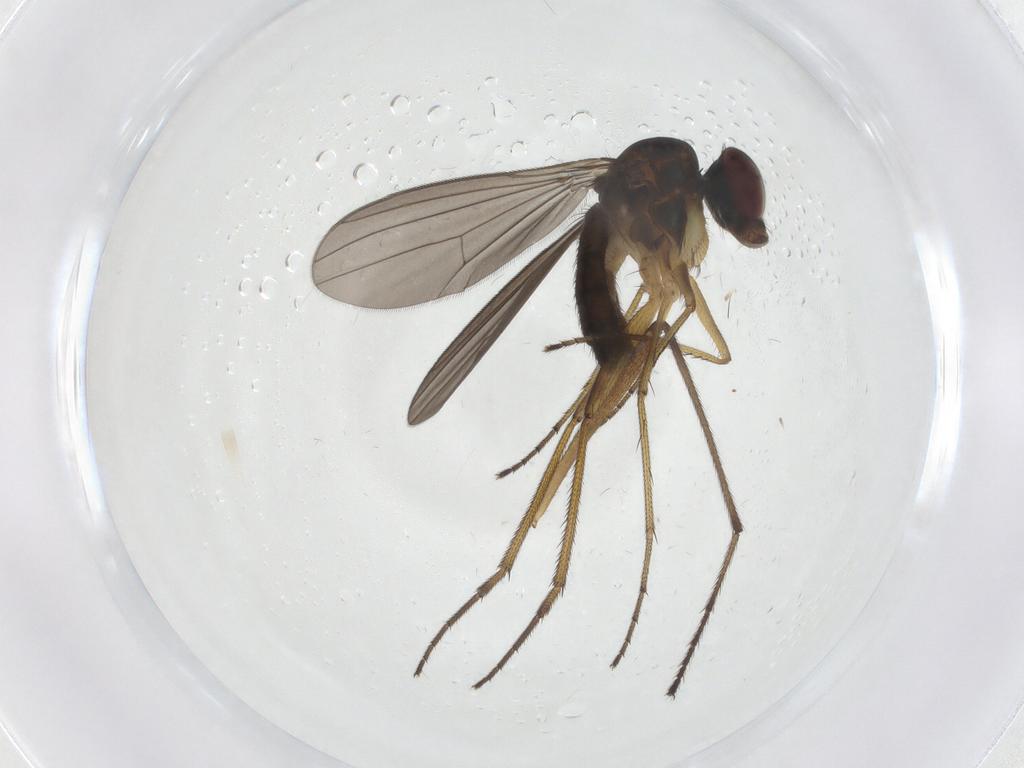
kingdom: Animalia
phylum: Arthropoda
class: Insecta
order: Diptera
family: Dolichopodidae
